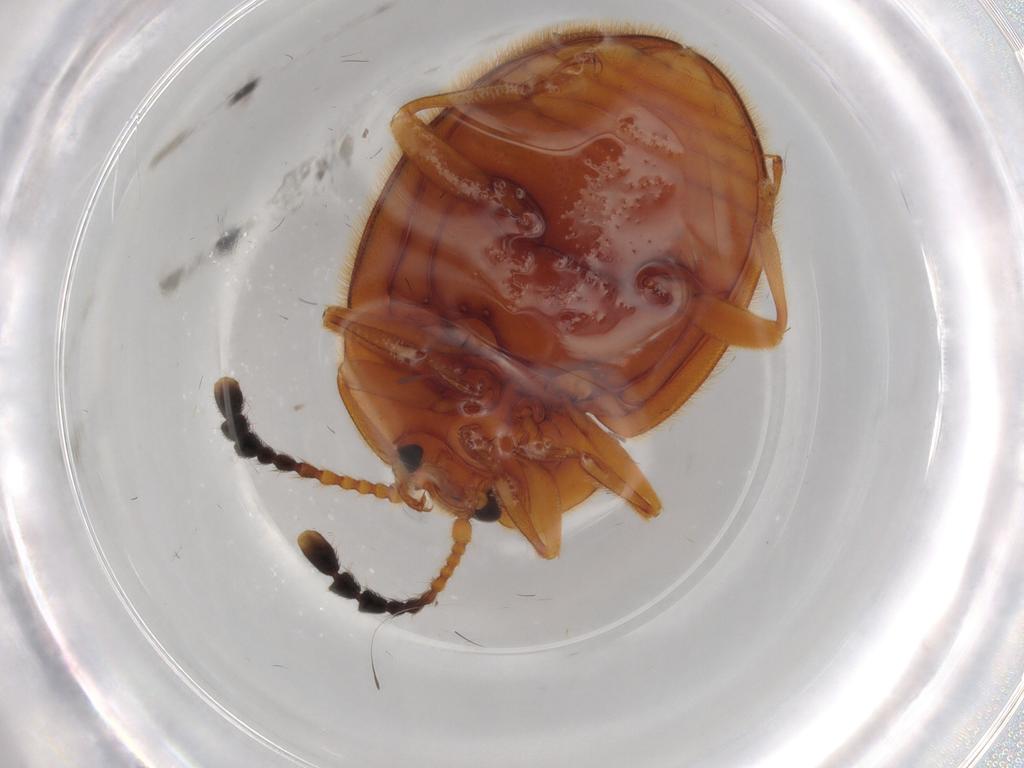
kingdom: Animalia
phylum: Arthropoda
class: Insecta
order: Coleoptera
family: Endomychidae
